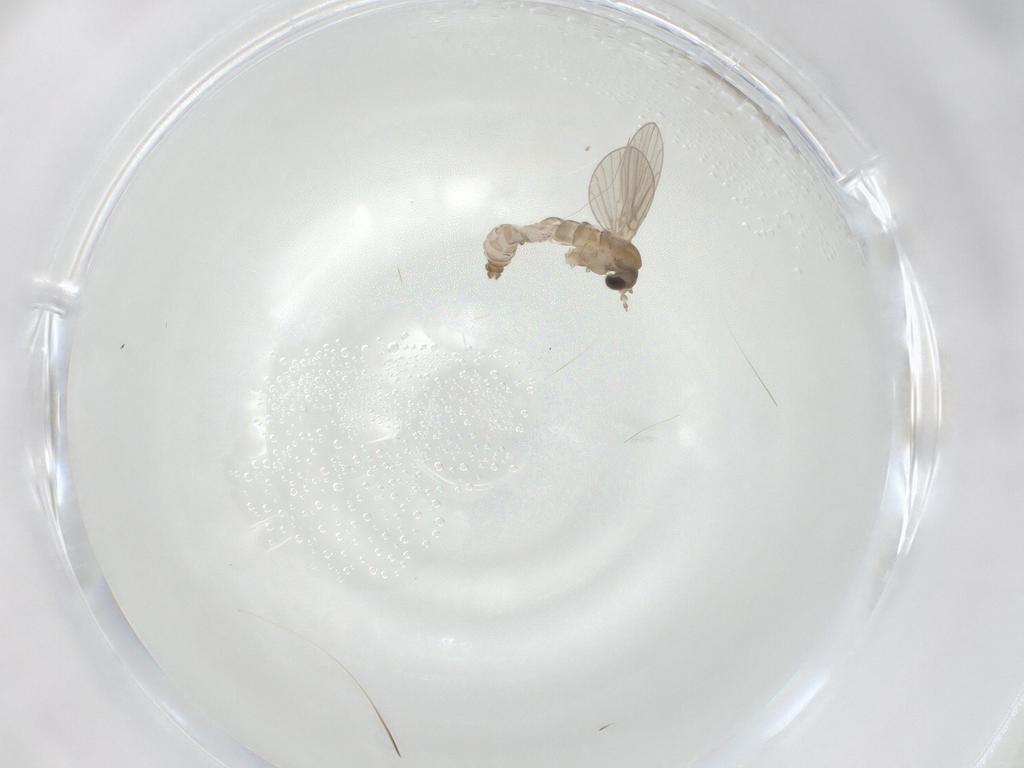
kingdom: Animalia
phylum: Arthropoda
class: Insecta
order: Diptera
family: Psychodidae
